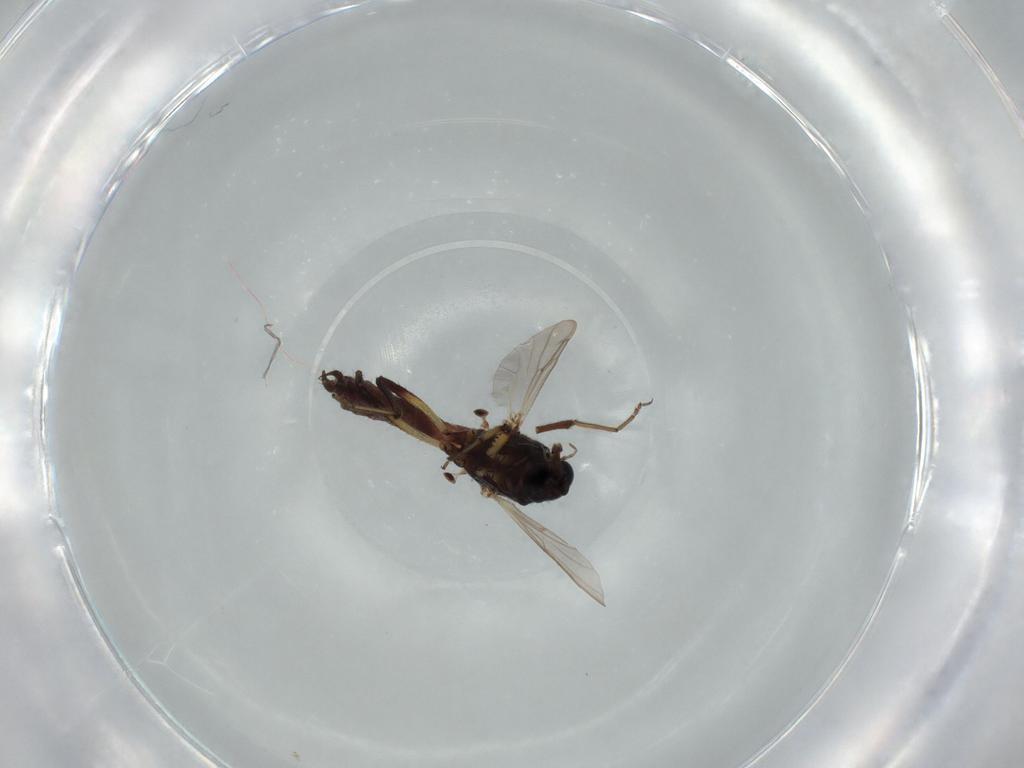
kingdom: Animalia
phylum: Arthropoda
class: Insecta
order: Diptera
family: Chironomidae
